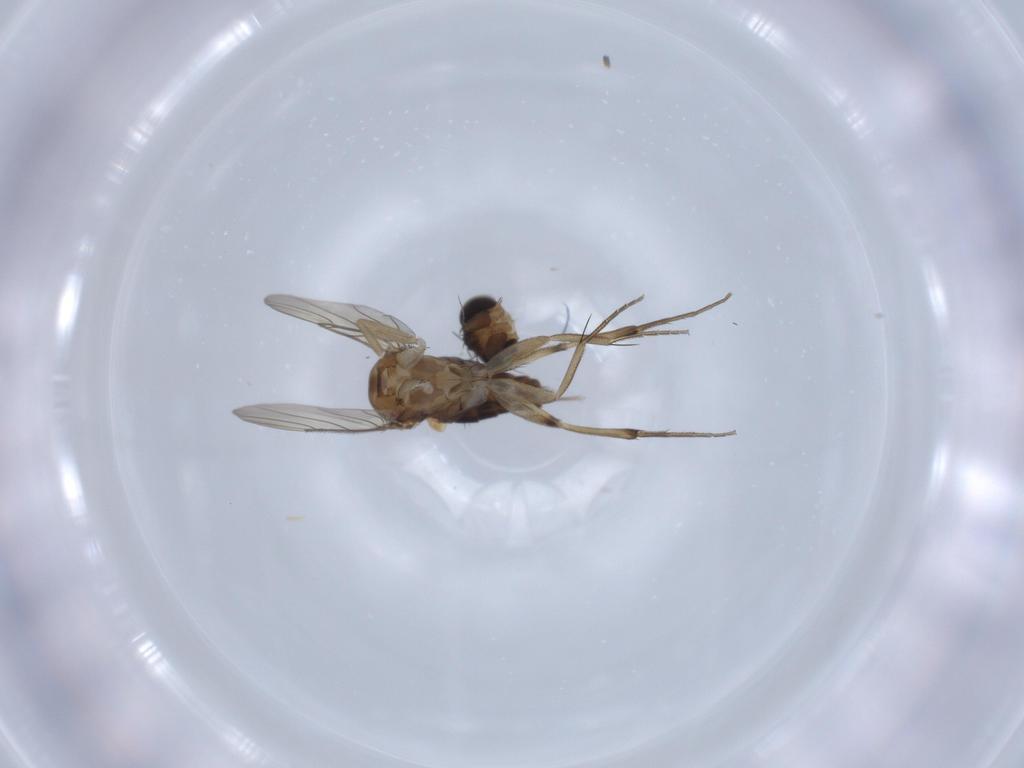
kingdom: Animalia
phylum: Arthropoda
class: Insecta
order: Diptera
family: Phoridae
